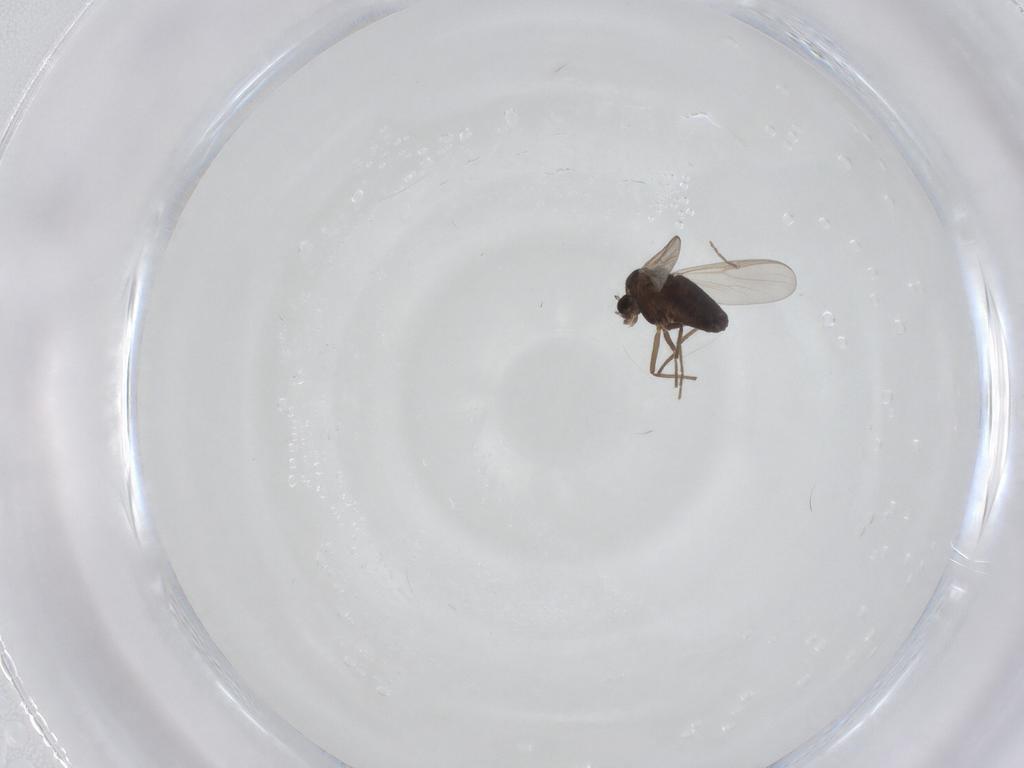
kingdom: Animalia
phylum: Arthropoda
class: Insecta
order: Diptera
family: Chironomidae
